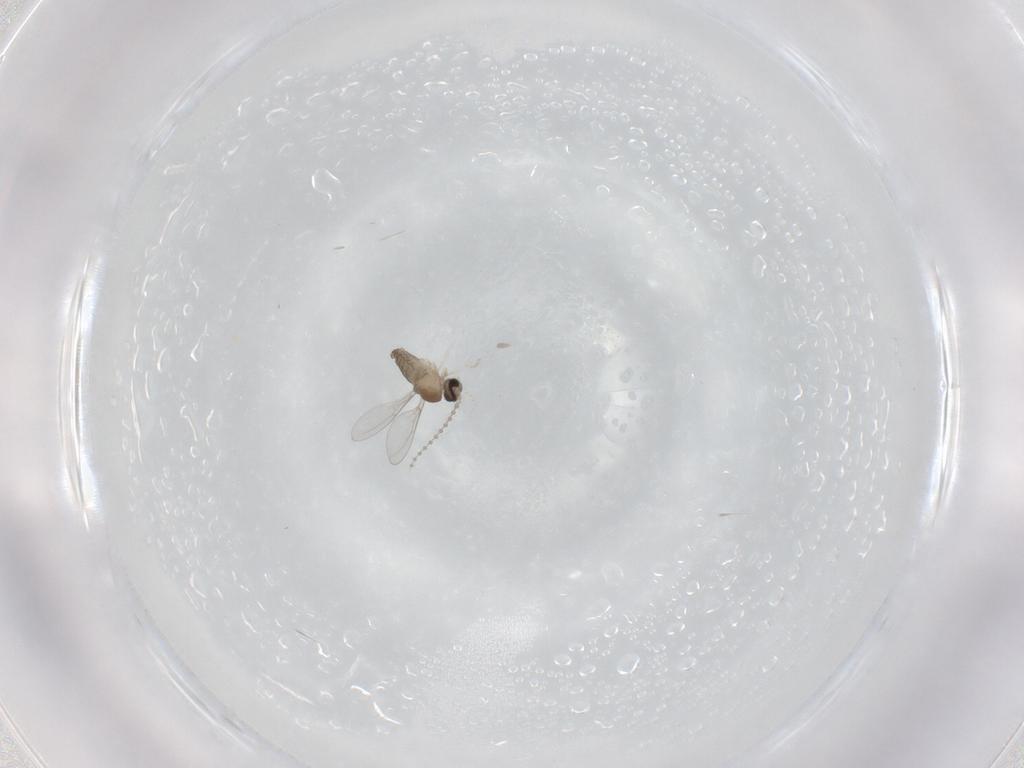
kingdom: Animalia
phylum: Arthropoda
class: Insecta
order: Diptera
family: Cecidomyiidae
